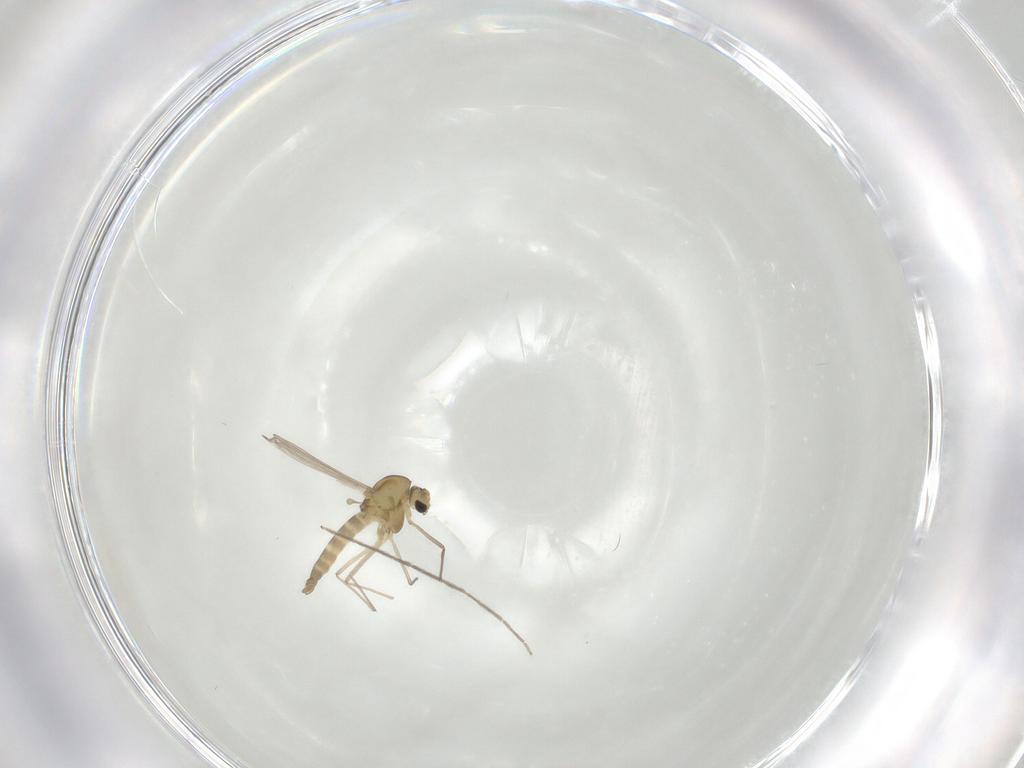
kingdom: Animalia
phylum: Arthropoda
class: Insecta
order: Diptera
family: Chironomidae
